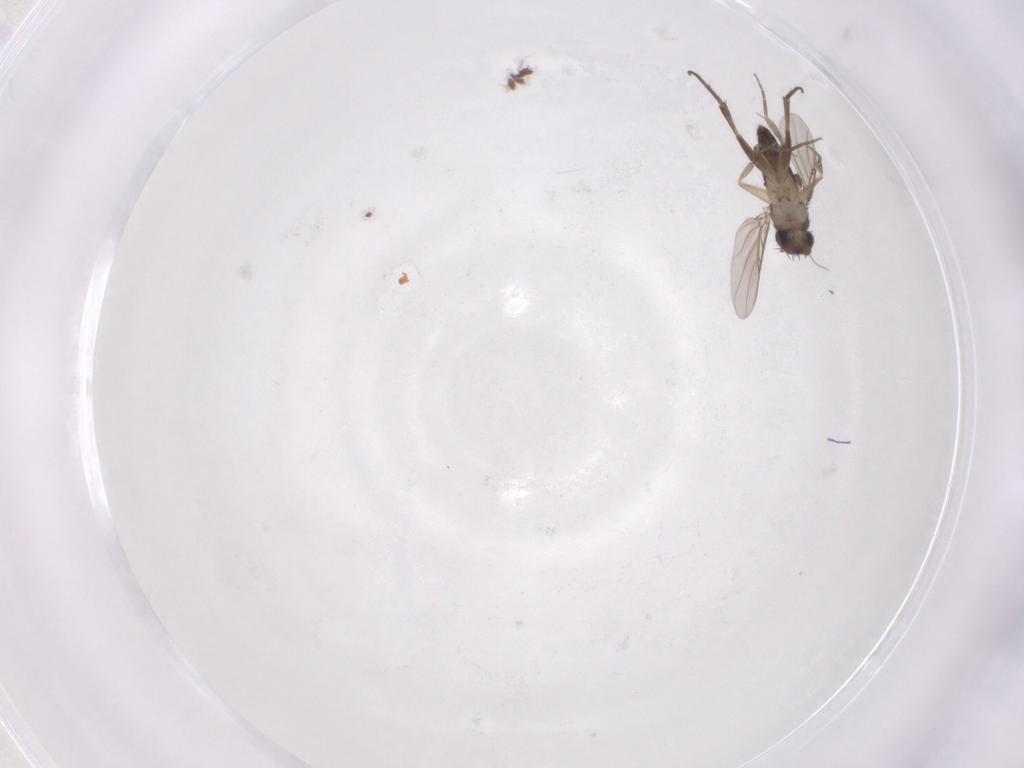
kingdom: Animalia
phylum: Arthropoda
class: Insecta
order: Diptera
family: Phoridae
